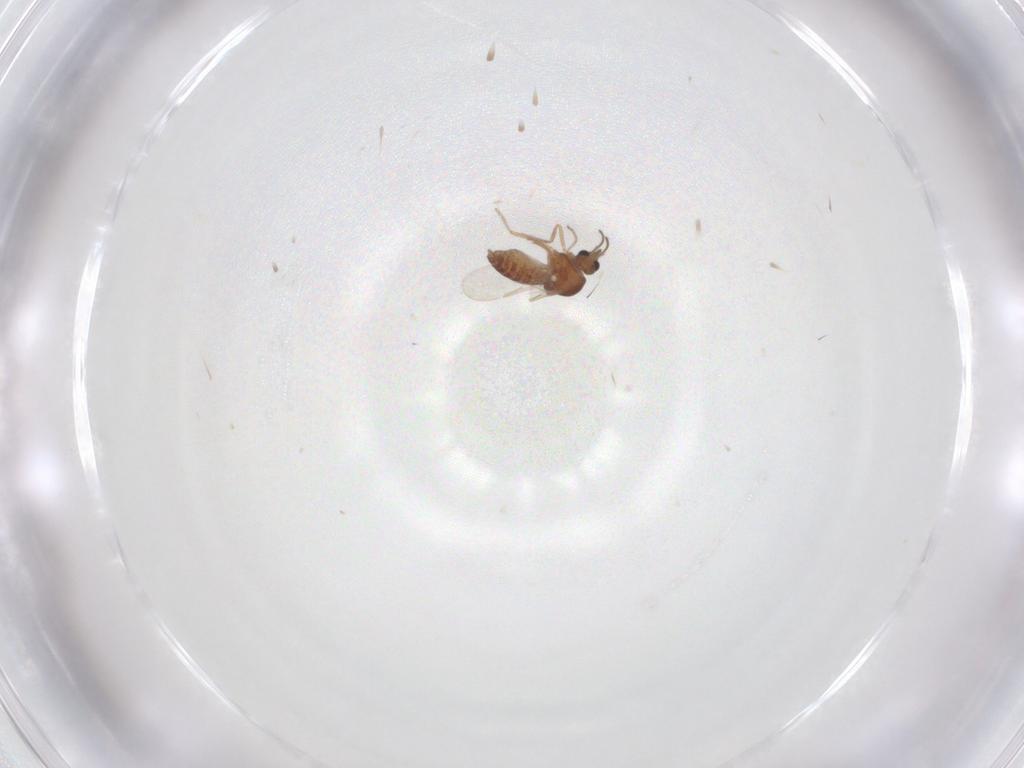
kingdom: Animalia
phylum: Arthropoda
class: Insecta
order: Diptera
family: Ceratopogonidae
